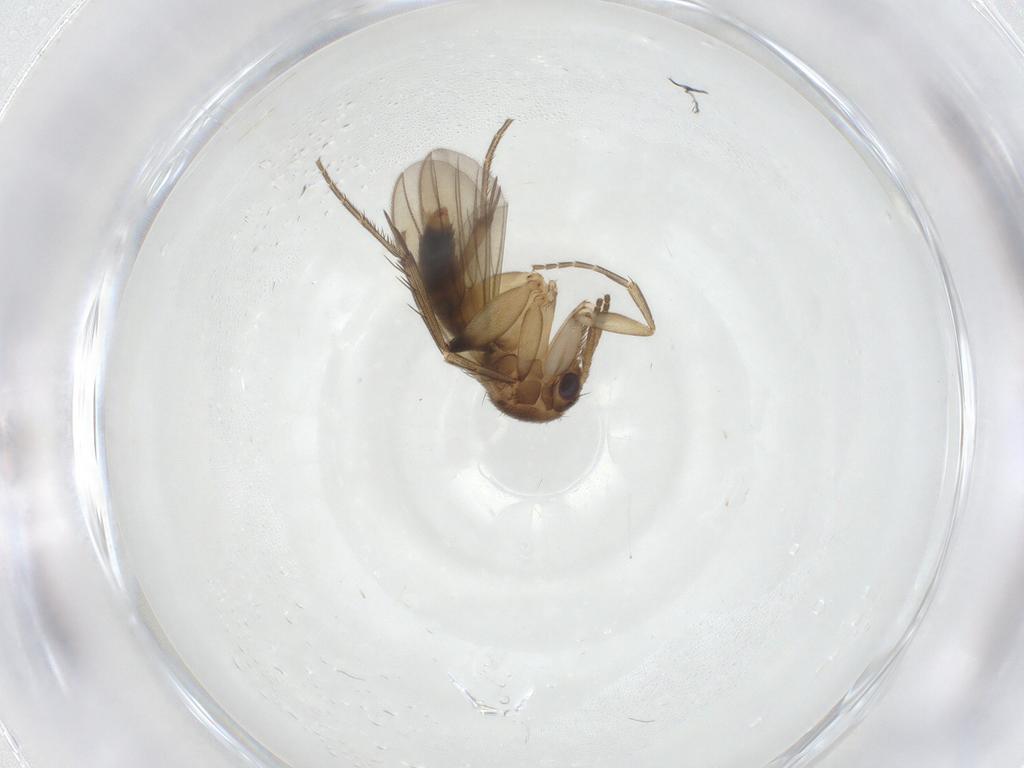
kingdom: Animalia
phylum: Arthropoda
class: Insecta
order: Diptera
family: Mycetophilidae
